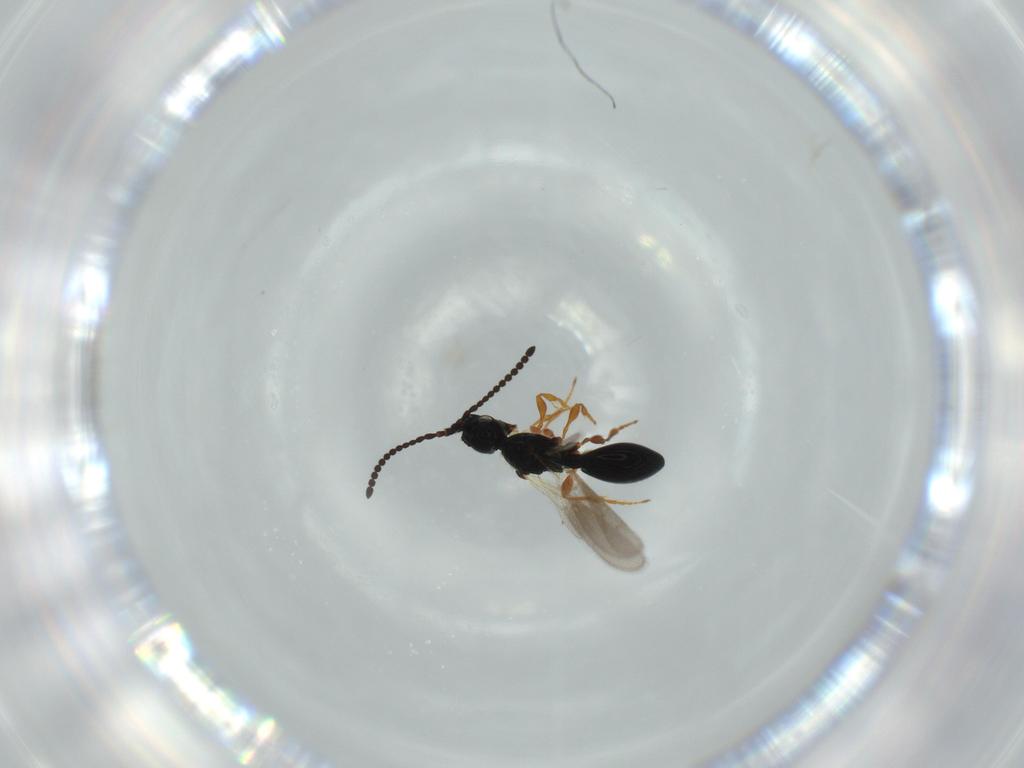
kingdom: Animalia
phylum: Arthropoda
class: Insecta
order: Hymenoptera
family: Diapriidae
